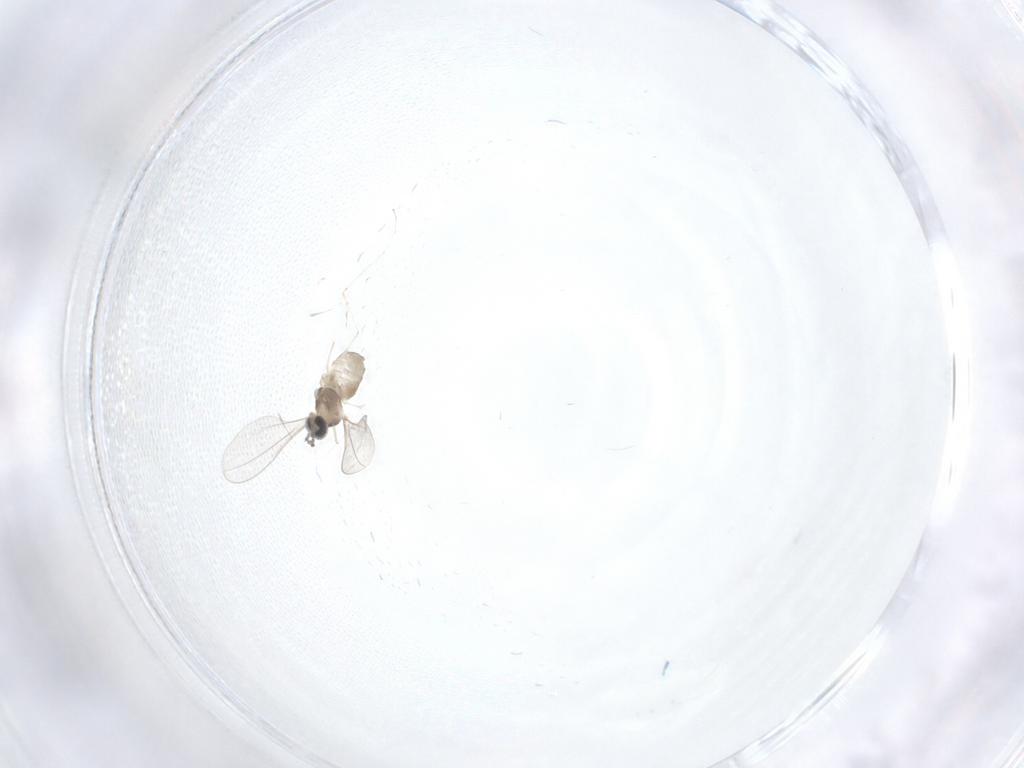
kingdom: Animalia
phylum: Arthropoda
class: Insecta
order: Diptera
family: Cecidomyiidae
